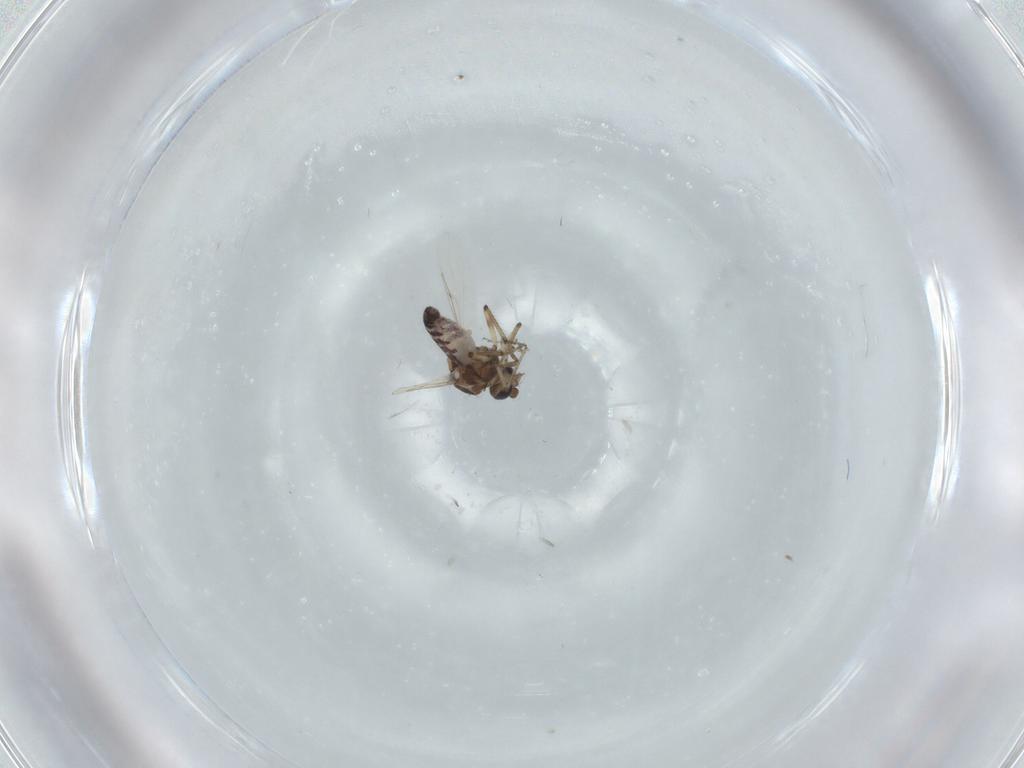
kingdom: Animalia
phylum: Arthropoda
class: Insecta
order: Diptera
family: Ceratopogonidae
